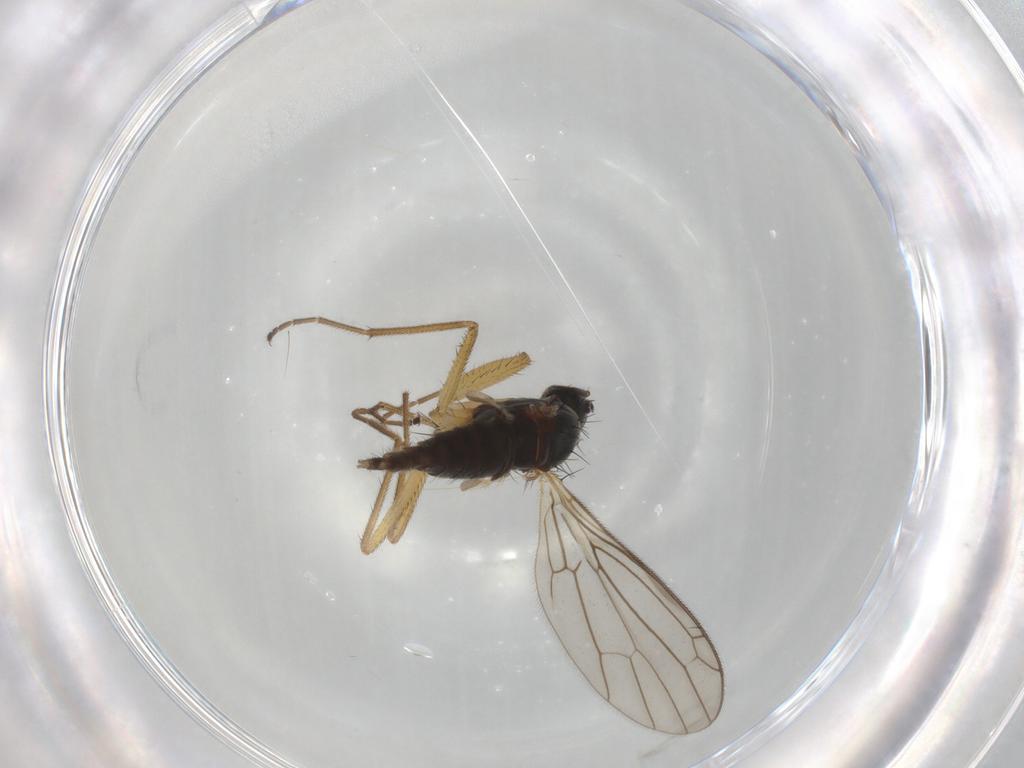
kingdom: Animalia
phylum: Arthropoda
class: Insecta
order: Diptera
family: Empididae
